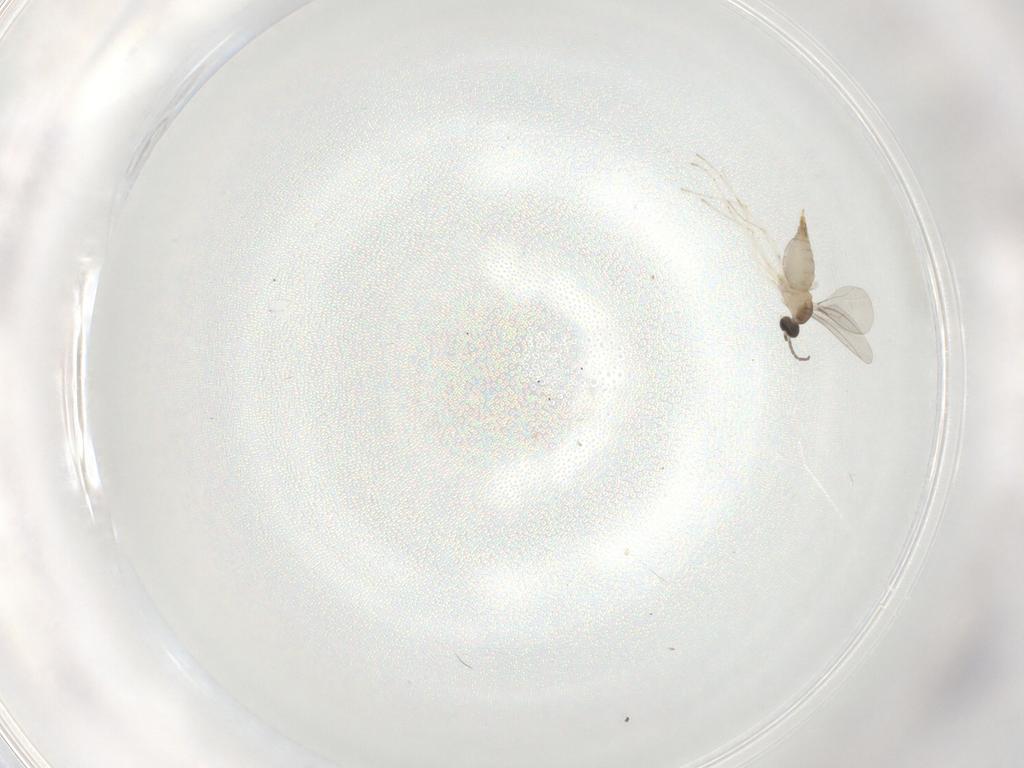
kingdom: Animalia
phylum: Arthropoda
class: Insecta
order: Diptera
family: Cecidomyiidae
